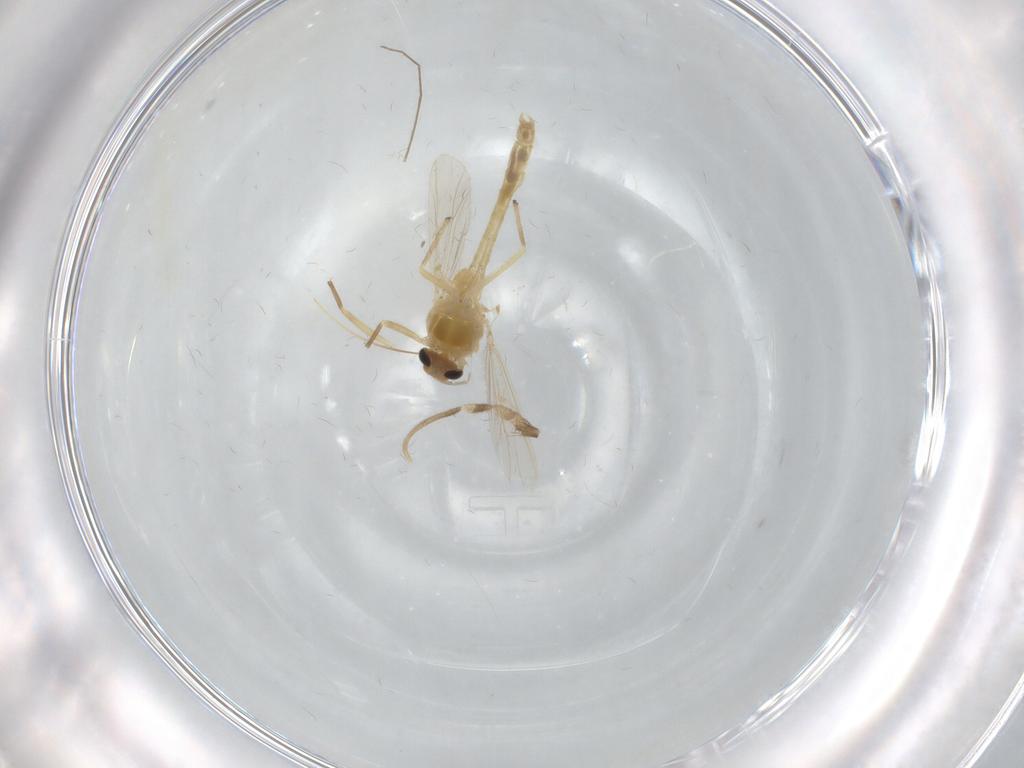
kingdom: Animalia
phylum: Arthropoda
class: Insecta
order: Diptera
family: Chironomidae
